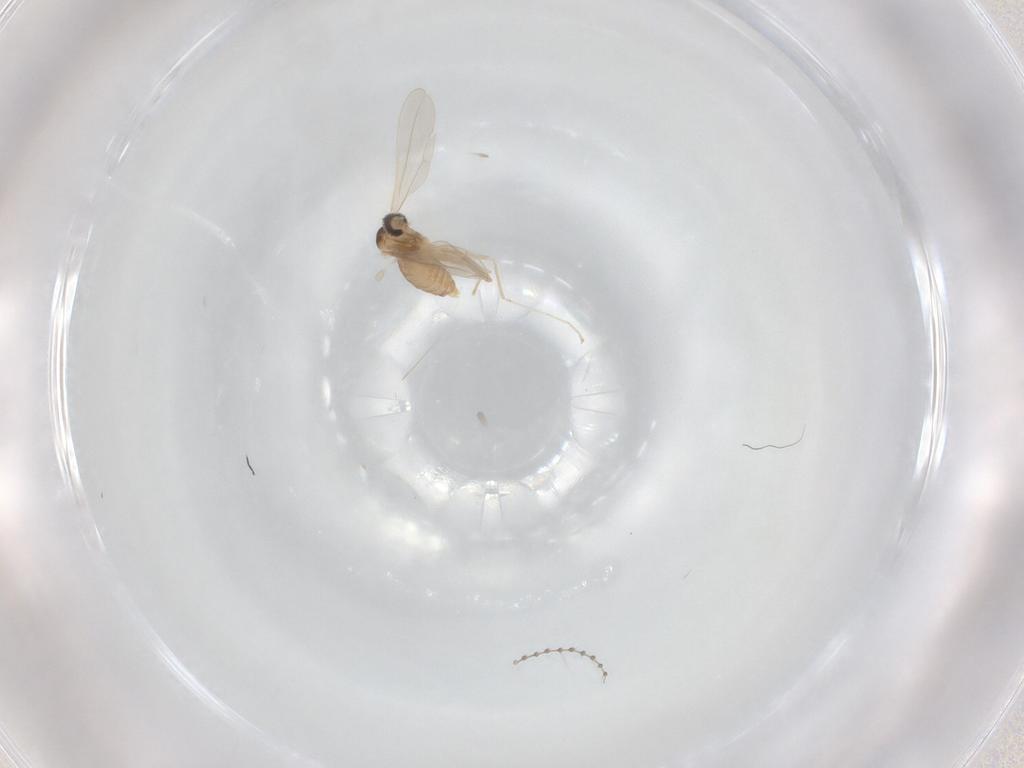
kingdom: Animalia
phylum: Arthropoda
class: Insecta
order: Diptera
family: Cecidomyiidae
